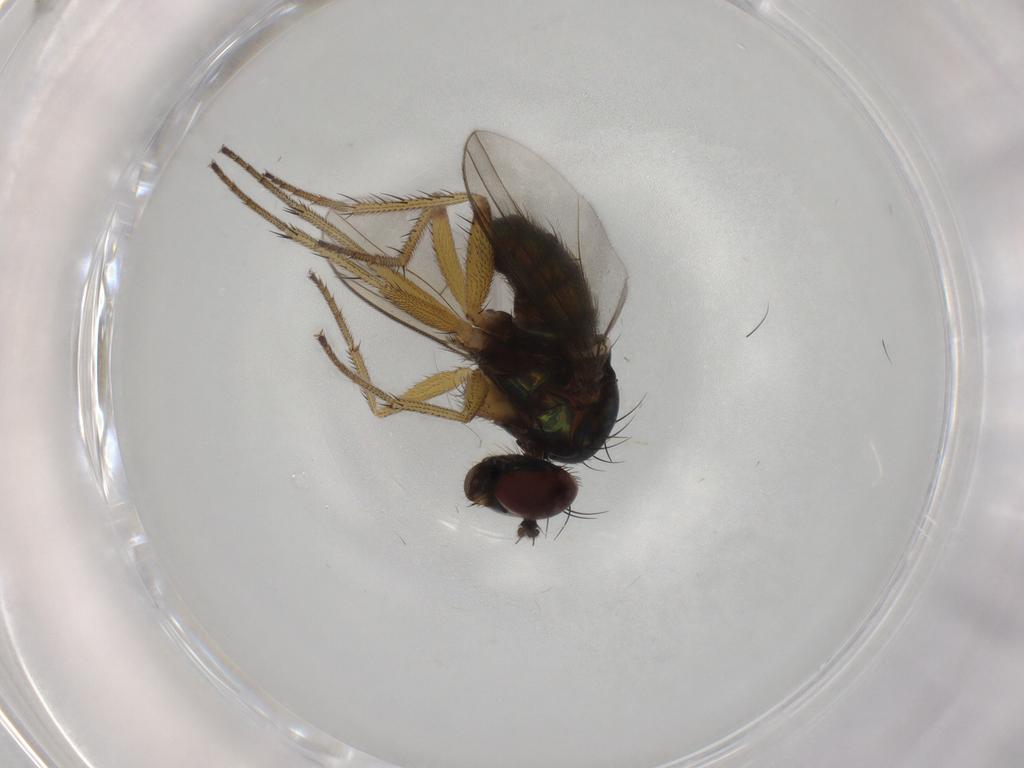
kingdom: Animalia
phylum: Arthropoda
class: Insecta
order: Diptera
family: Dolichopodidae
